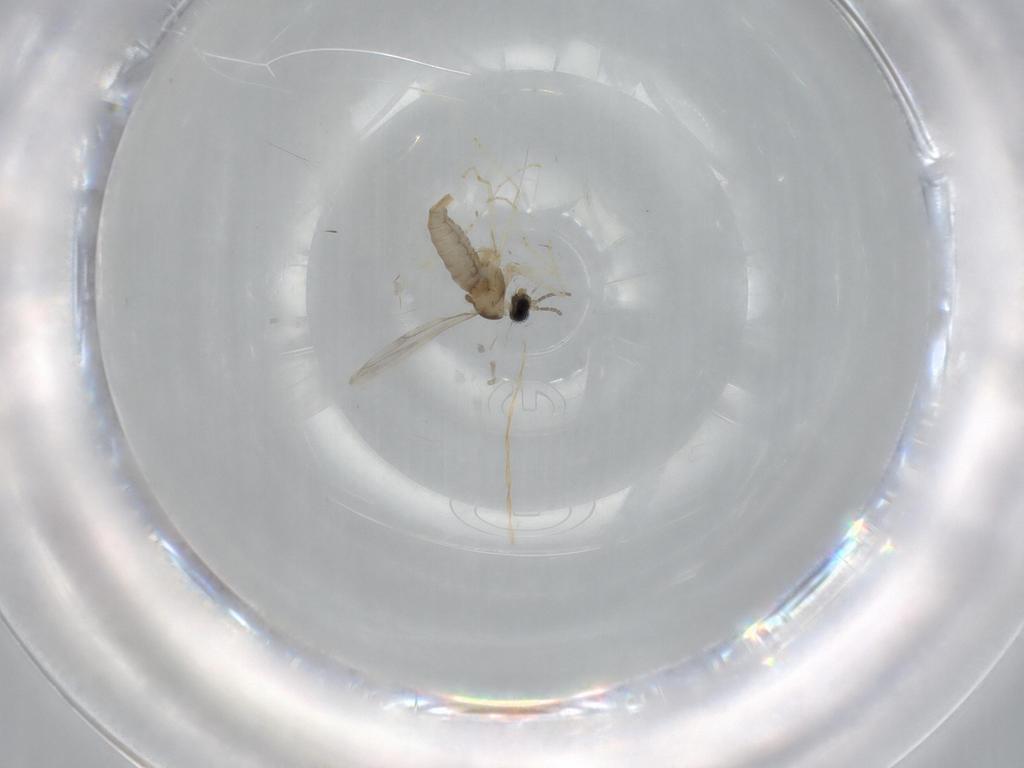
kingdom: Animalia
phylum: Arthropoda
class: Insecta
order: Diptera
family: Cecidomyiidae
